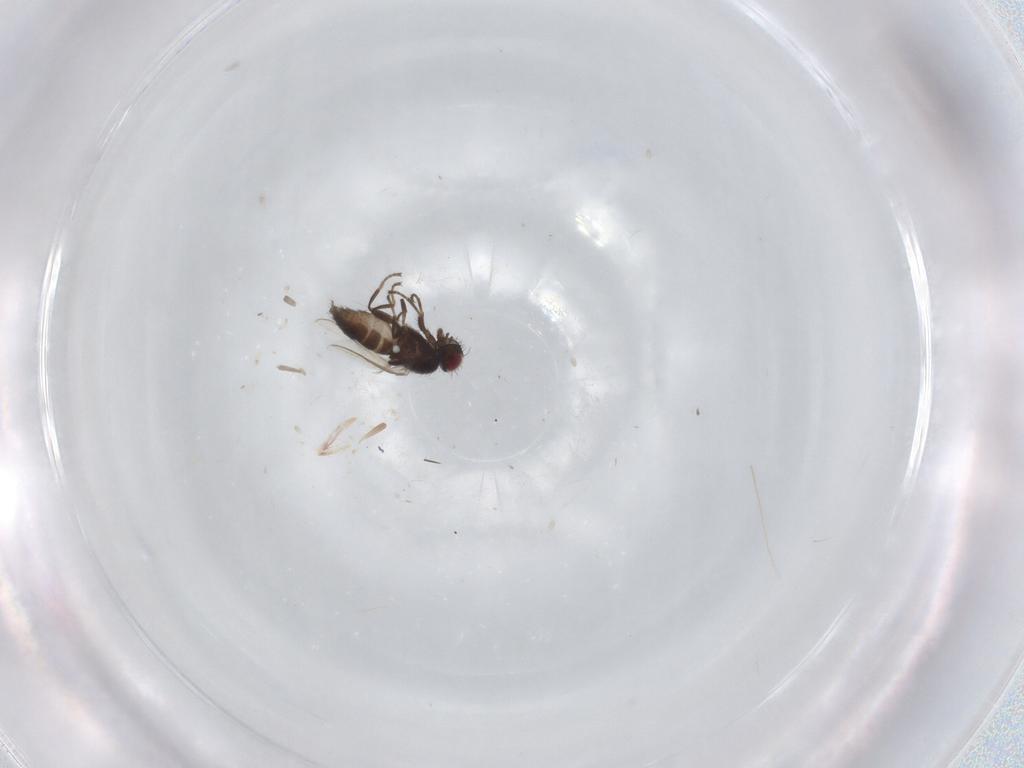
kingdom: Animalia
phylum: Arthropoda
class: Insecta
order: Diptera
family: Carnidae
